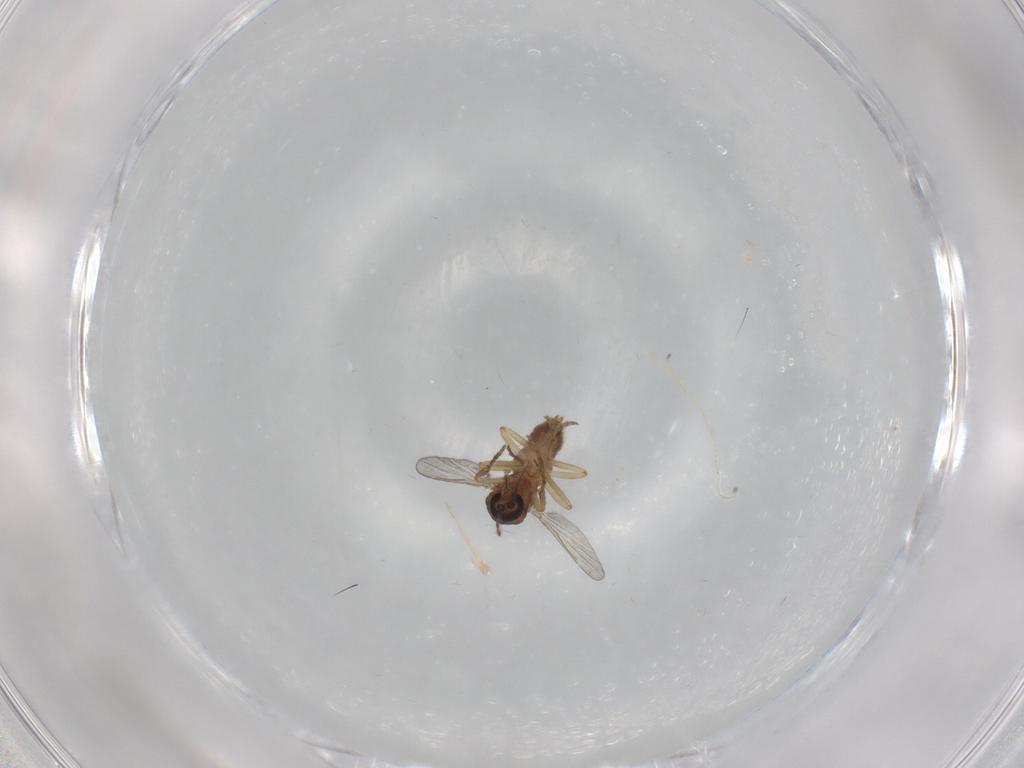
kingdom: Animalia
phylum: Arthropoda
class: Insecta
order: Diptera
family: Ceratopogonidae
